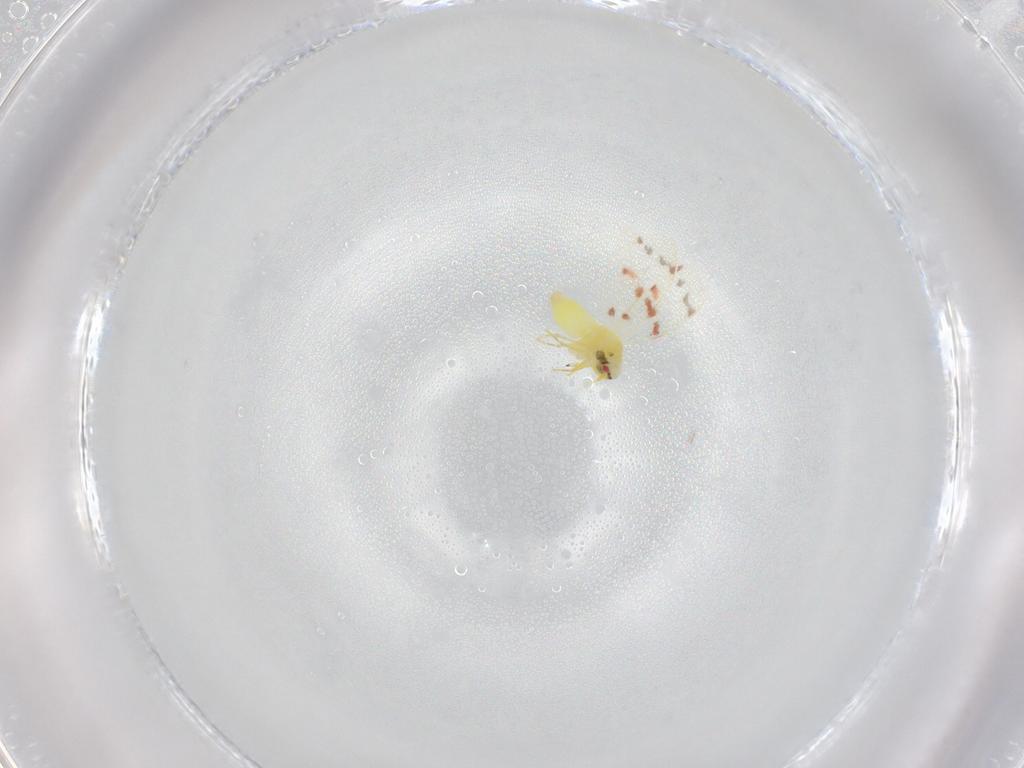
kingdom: Animalia
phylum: Arthropoda
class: Insecta
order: Hemiptera
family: Aleyrodidae
